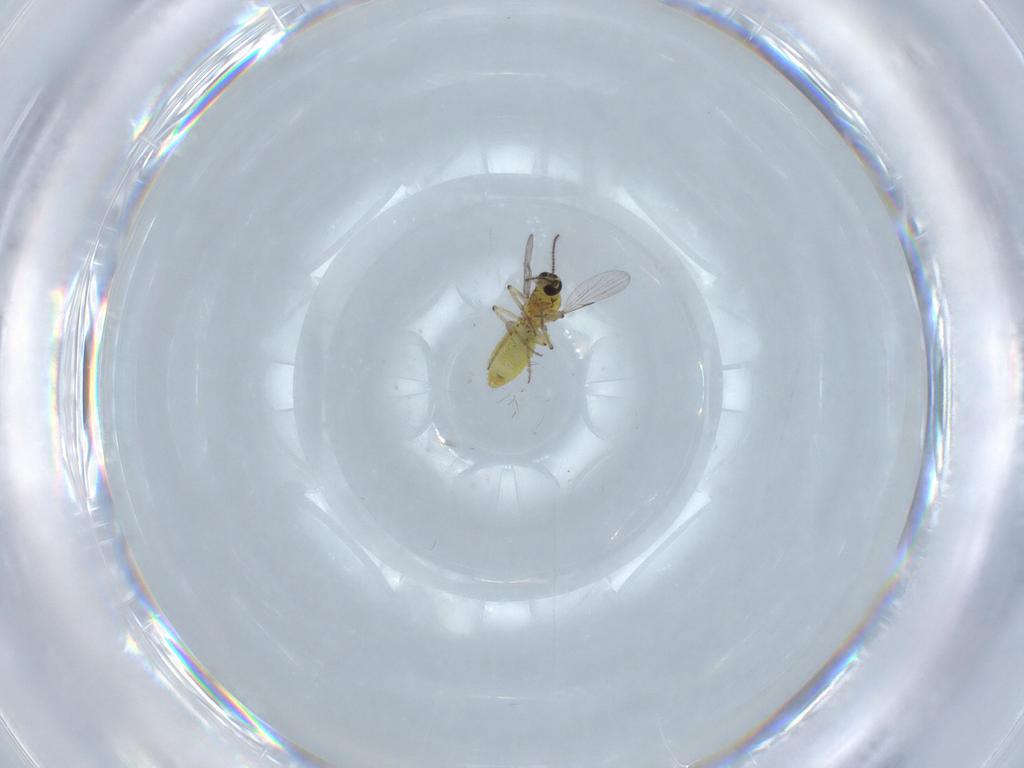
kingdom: Animalia
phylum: Arthropoda
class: Insecta
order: Diptera
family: Ceratopogonidae
